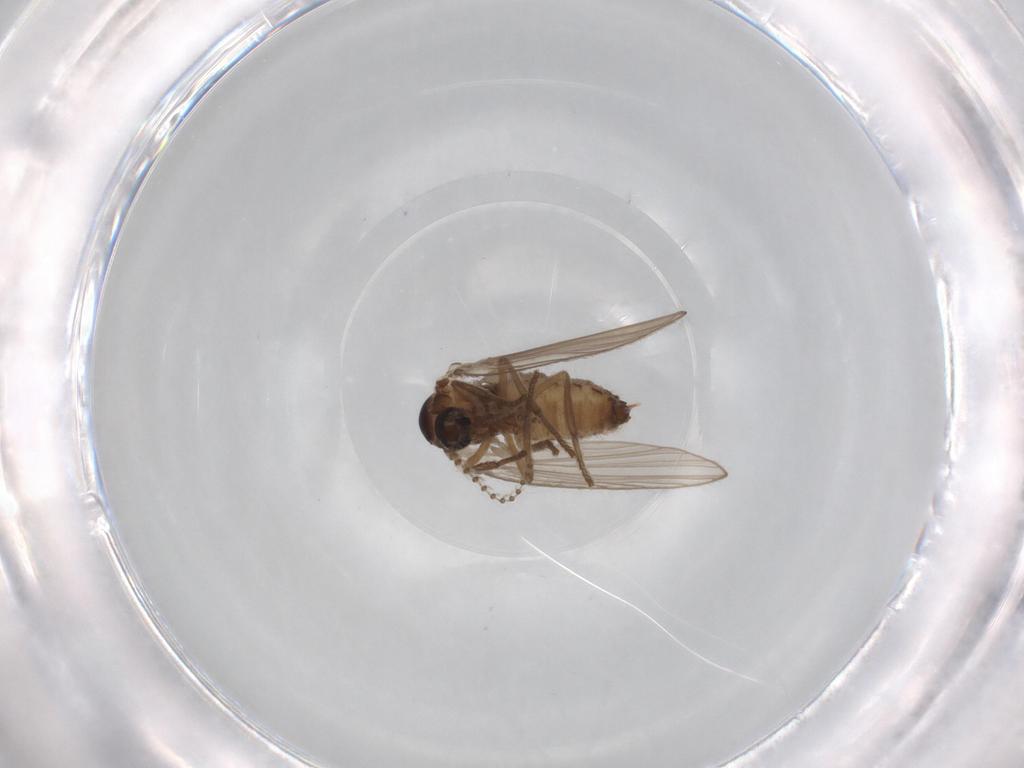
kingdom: Animalia
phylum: Arthropoda
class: Insecta
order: Diptera
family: Psychodidae
